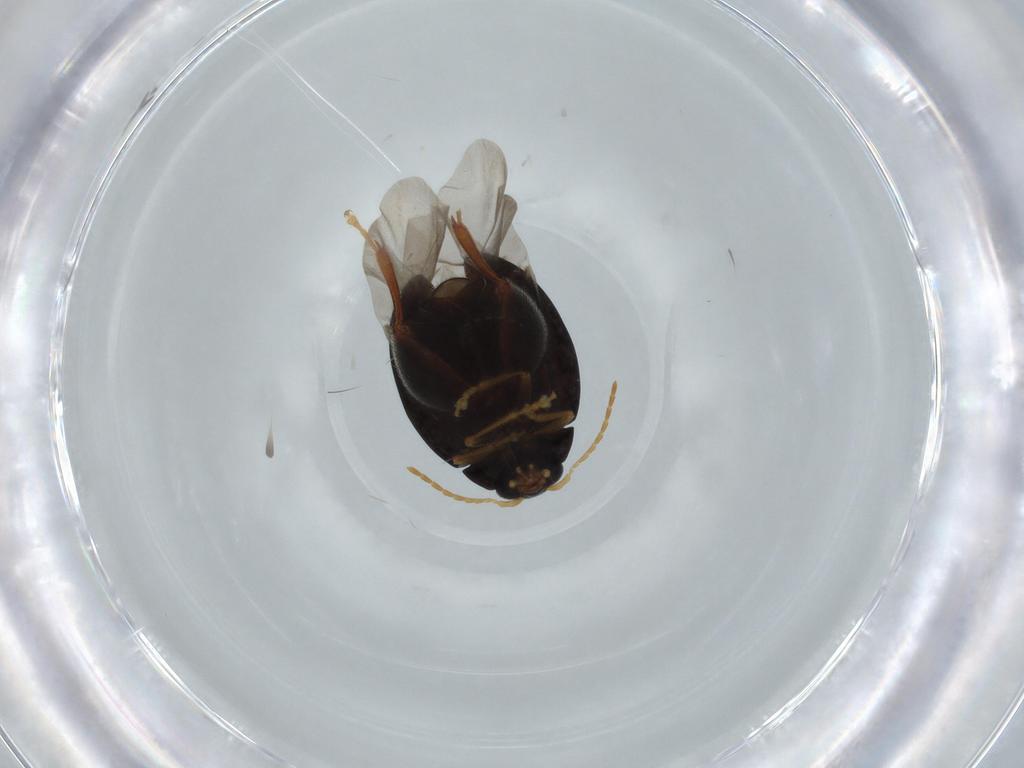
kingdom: Animalia
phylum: Arthropoda
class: Insecta
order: Coleoptera
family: Chrysomelidae
